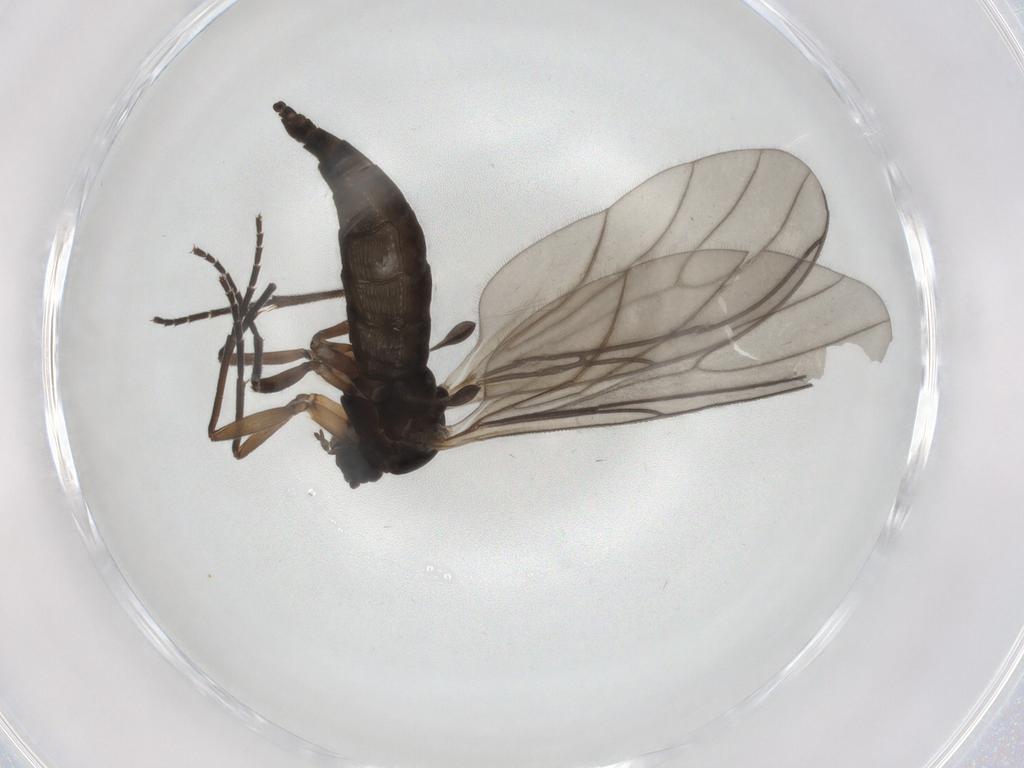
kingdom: Animalia
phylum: Arthropoda
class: Insecta
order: Diptera
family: Sciaridae
